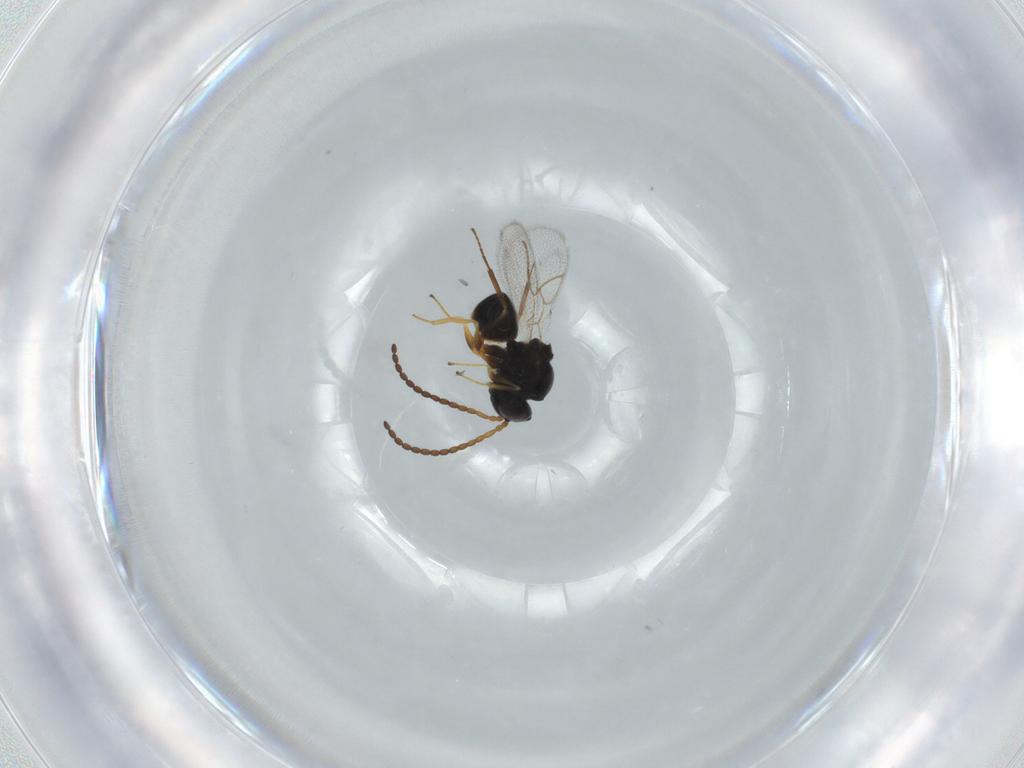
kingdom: Animalia
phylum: Arthropoda
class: Insecta
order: Hymenoptera
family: Figitidae
